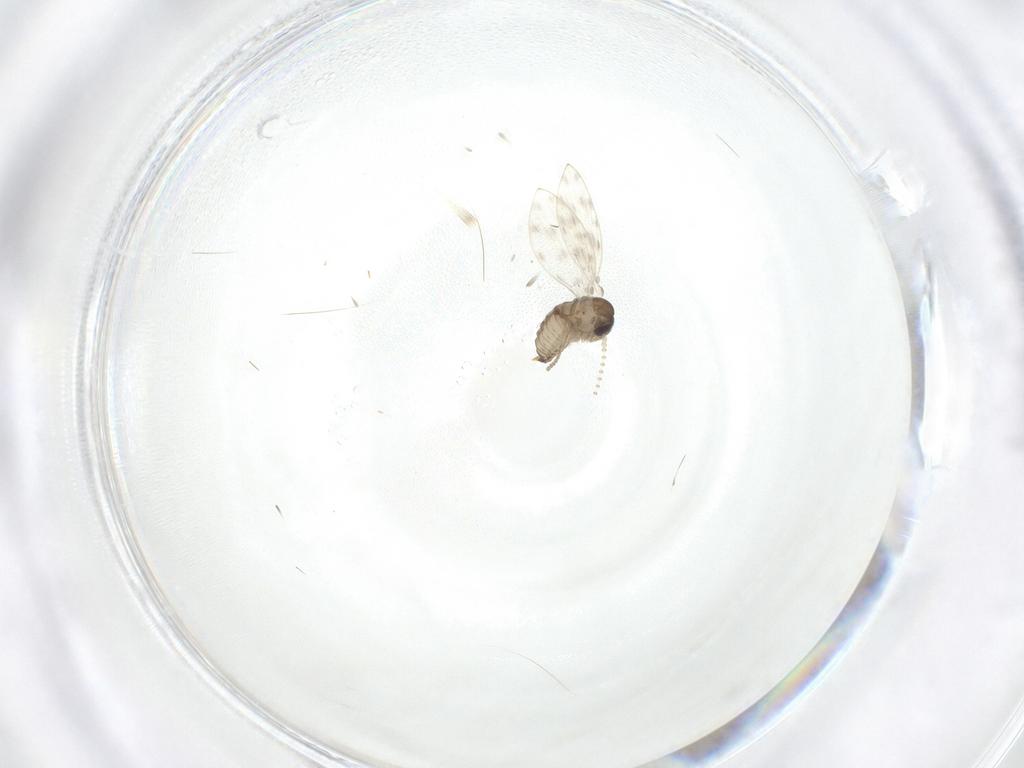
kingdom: Animalia
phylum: Arthropoda
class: Insecta
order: Diptera
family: Psychodidae
